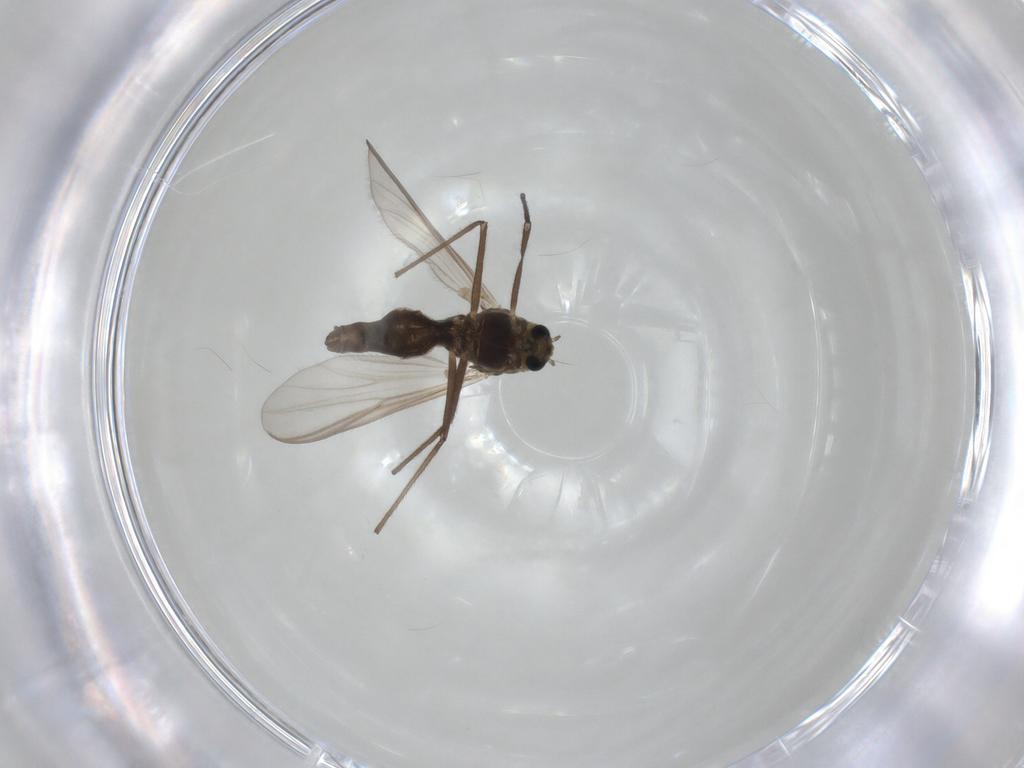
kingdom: Animalia
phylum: Arthropoda
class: Insecta
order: Diptera
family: Chironomidae
